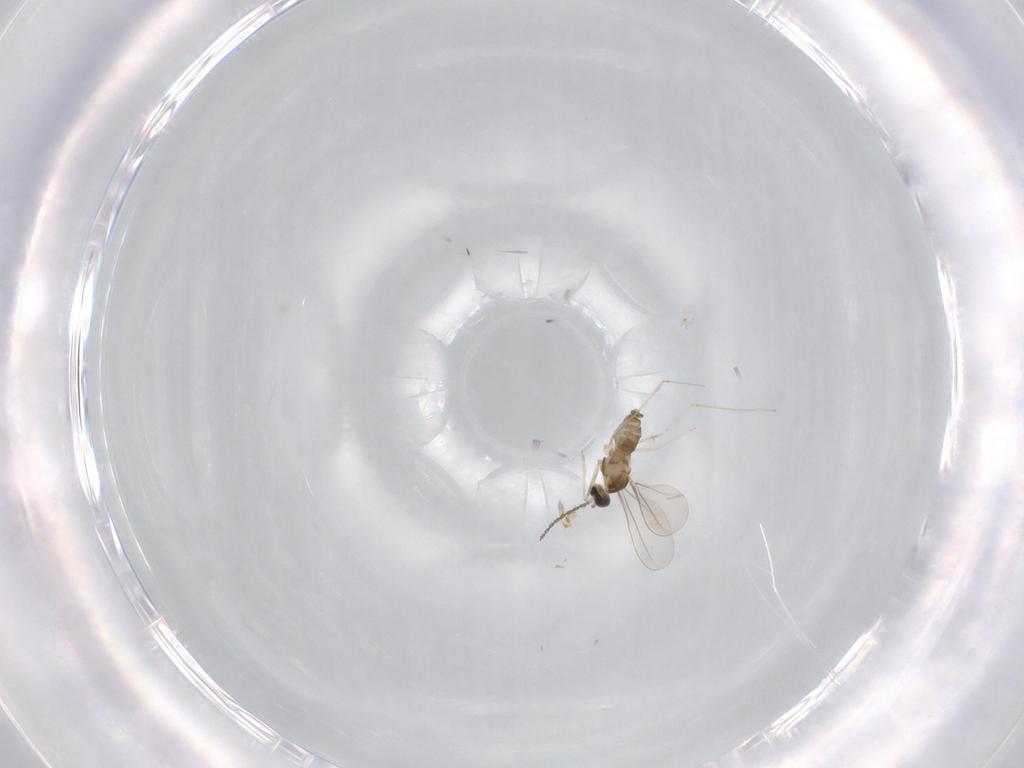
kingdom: Animalia
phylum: Arthropoda
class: Insecta
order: Diptera
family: Cecidomyiidae
